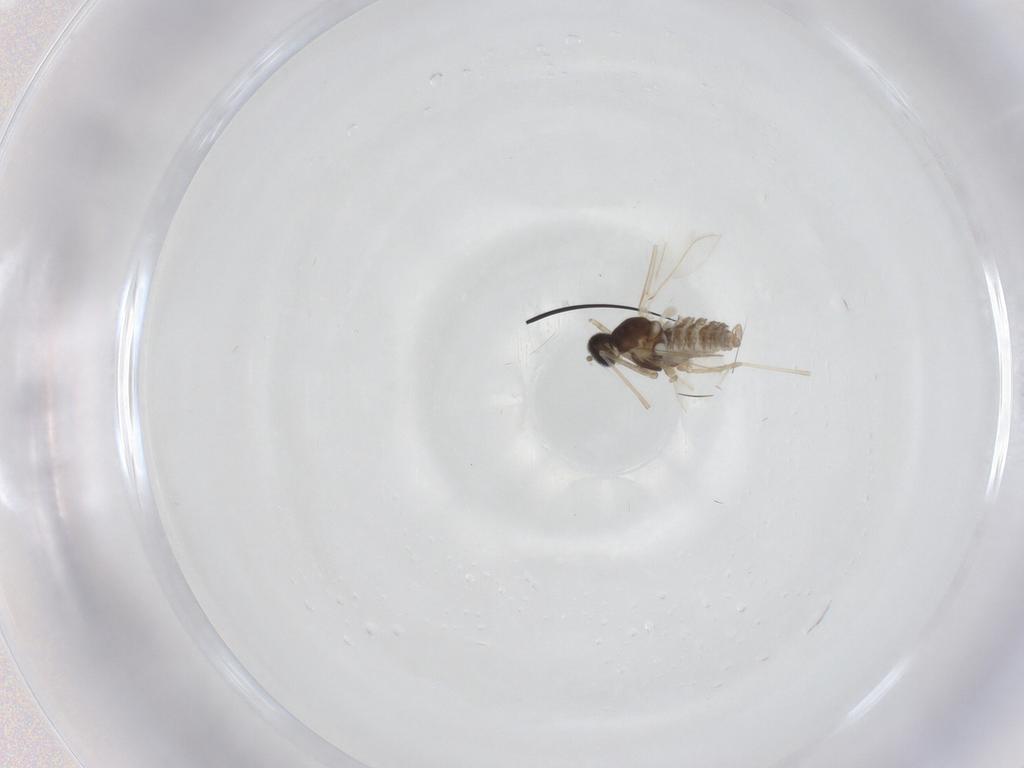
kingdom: Animalia
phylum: Arthropoda
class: Insecta
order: Diptera
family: Cecidomyiidae
